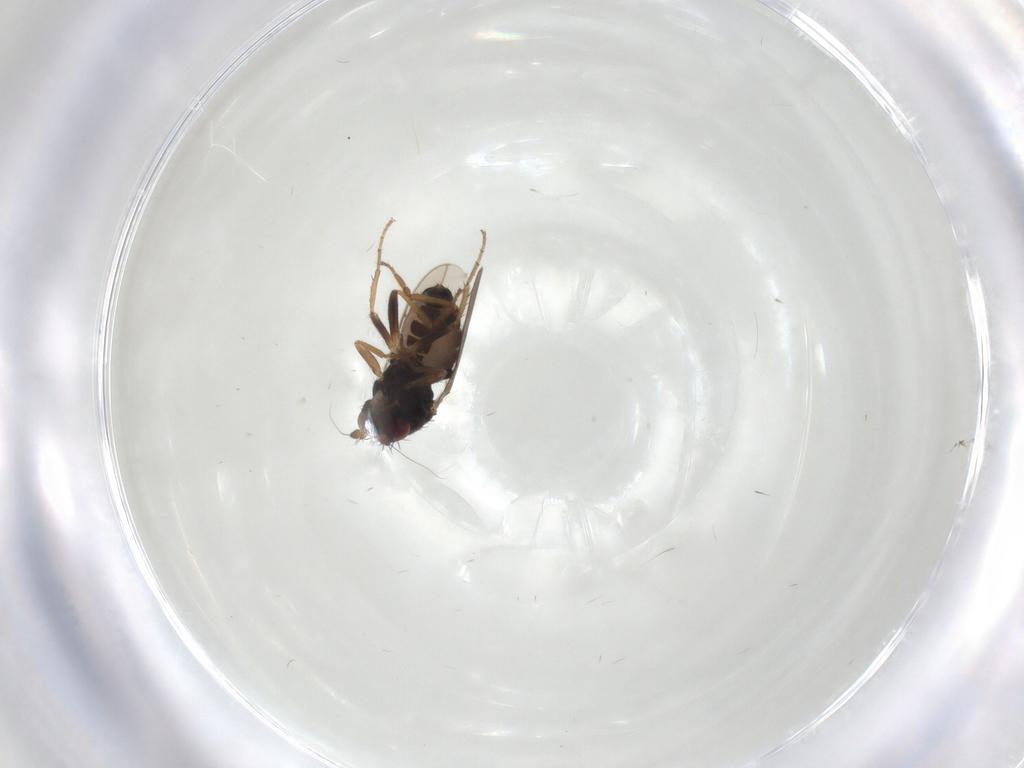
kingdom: Animalia
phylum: Arthropoda
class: Insecta
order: Diptera
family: Sphaeroceridae
